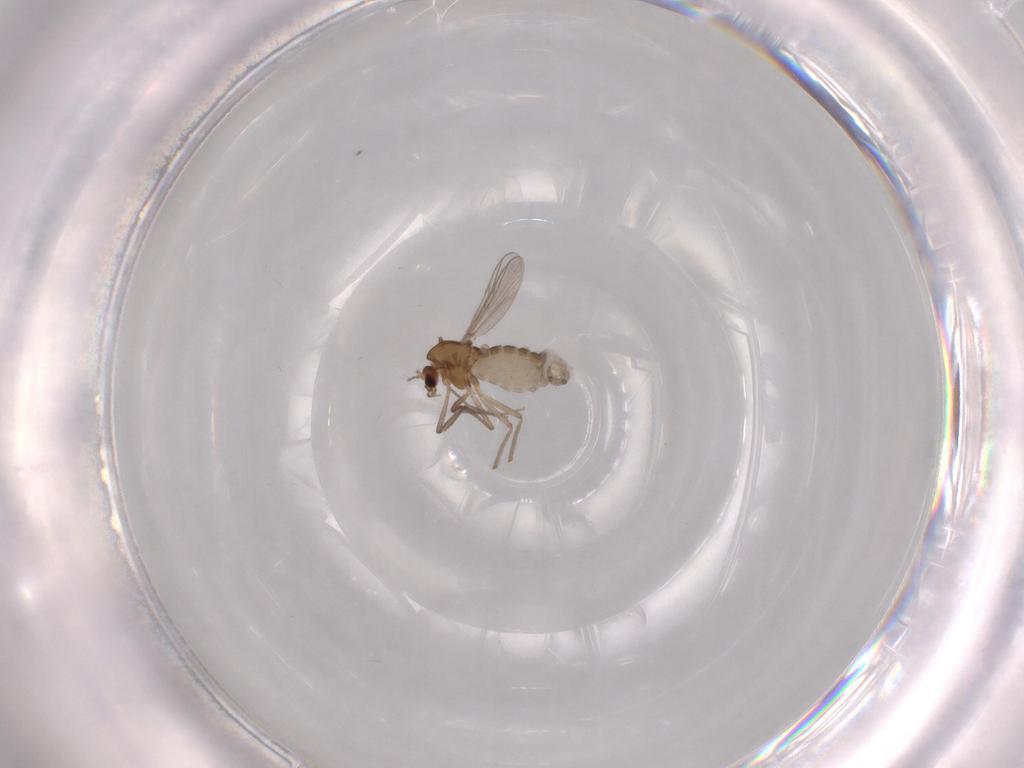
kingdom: Animalia
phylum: Arthropoda
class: Insecta
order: Diptera
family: Chironomidae
